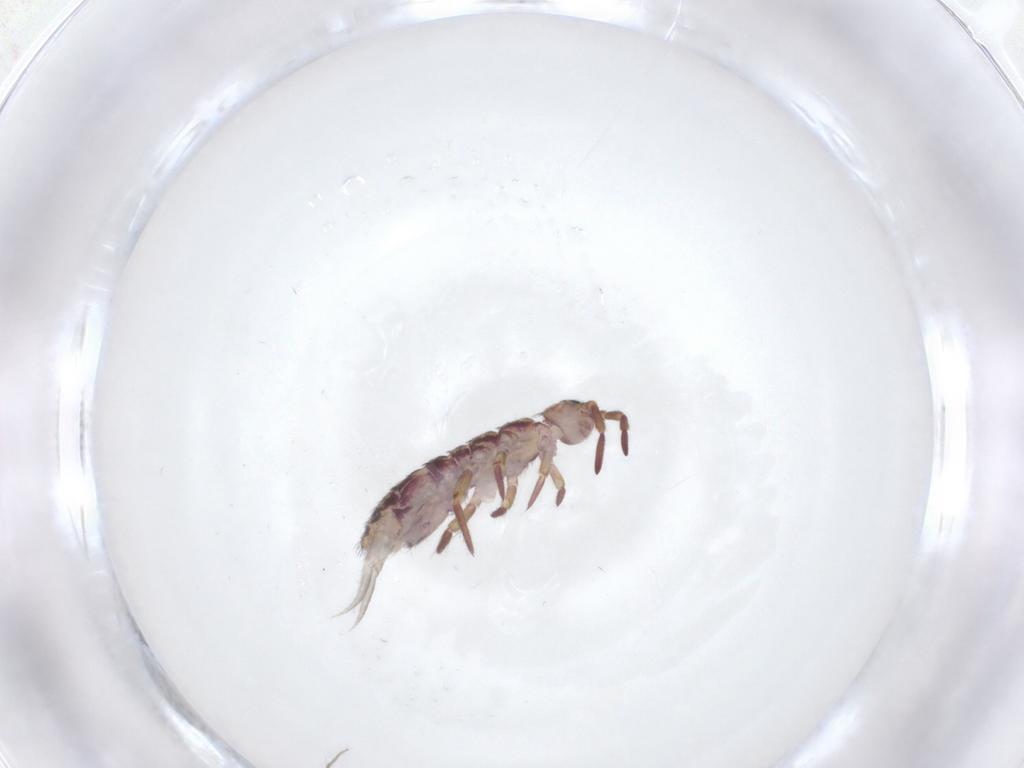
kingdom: Animalia
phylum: Arthropoda
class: Collembola
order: Entomobryomorpha
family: Isotomidae
